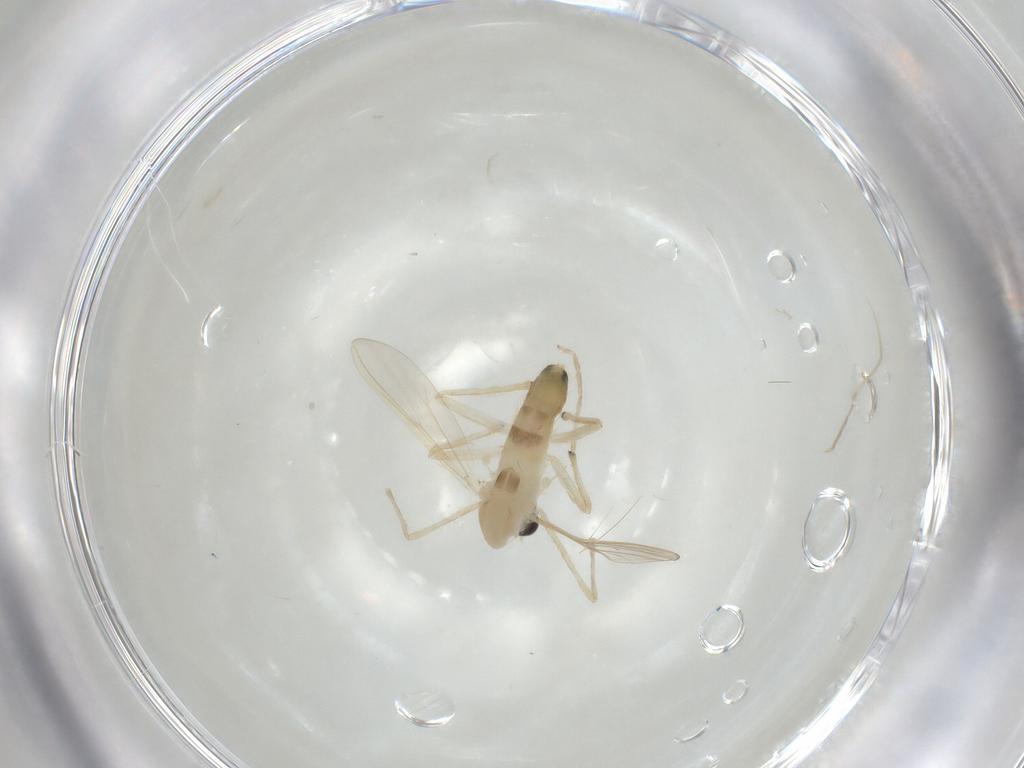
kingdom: Animalia
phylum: Arthropoda
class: Insecta
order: Diptera
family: Chironomidae
